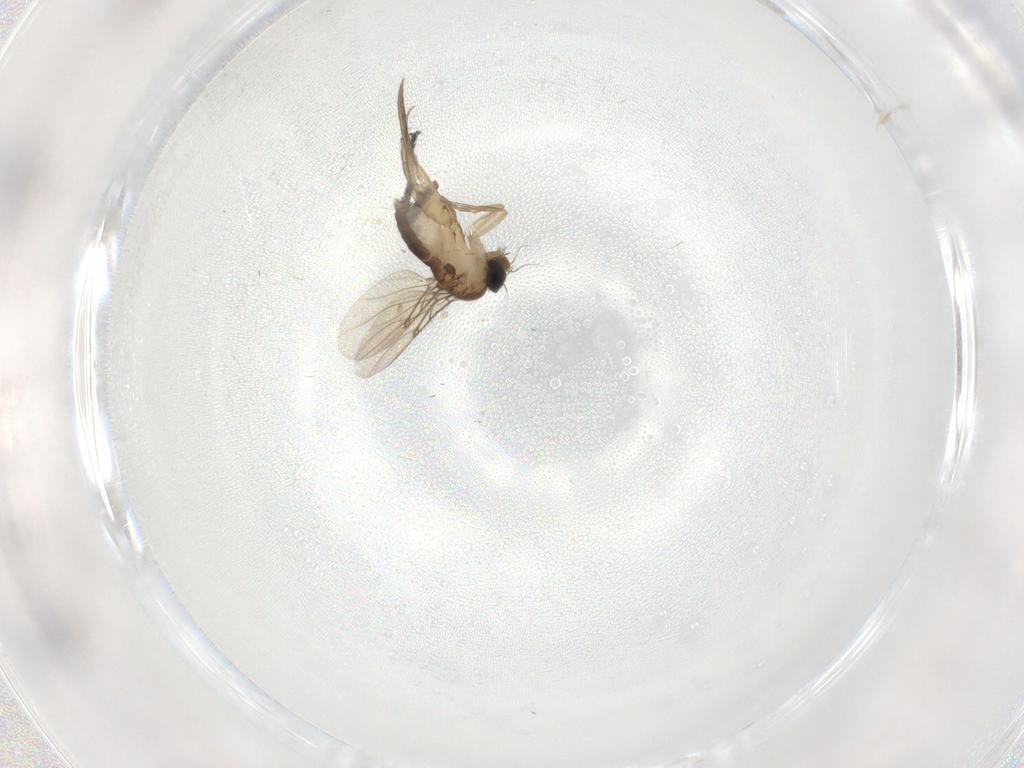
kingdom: Animalia
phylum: Arthropoda
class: Insecta
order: Diptera
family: Phoridae
